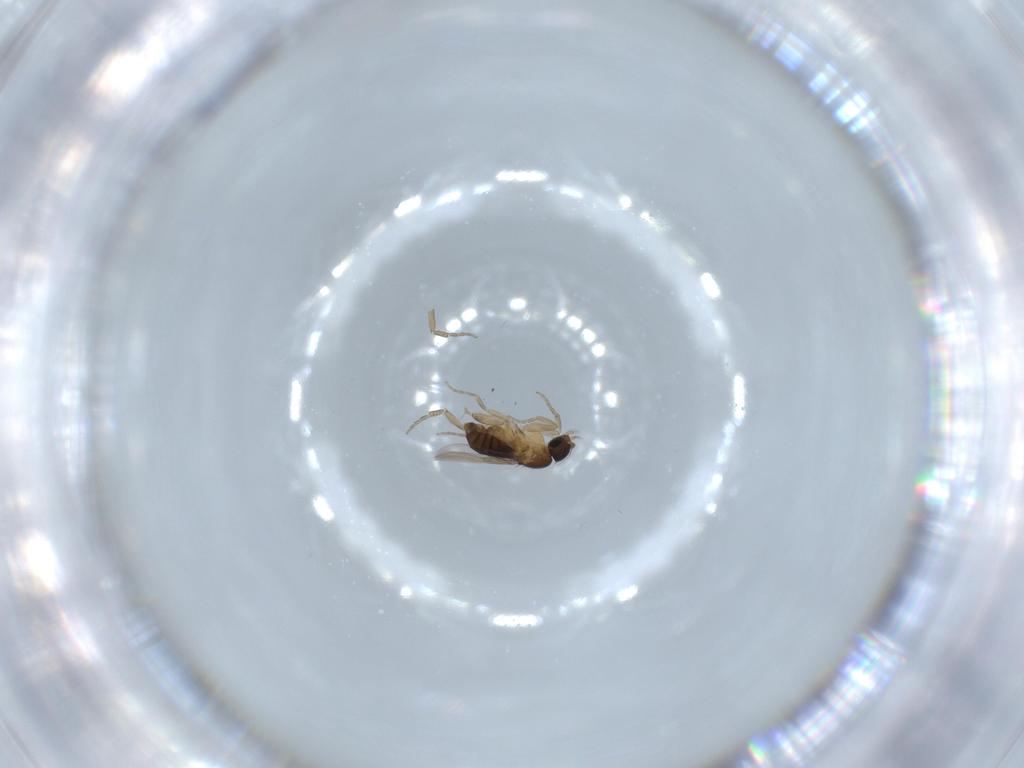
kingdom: Animalia
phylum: Arthropoda
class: Insecta
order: Diptera
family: Phoridae
